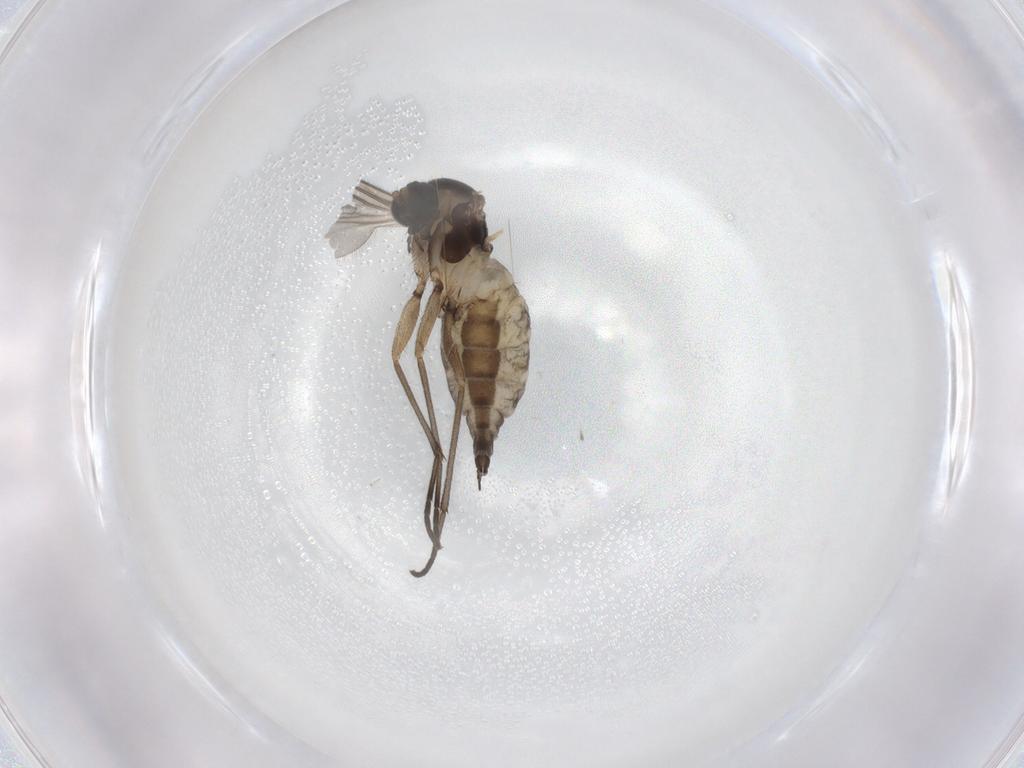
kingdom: Animalia
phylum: Arthropoda
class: Insecta
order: Diptera
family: Sciaridae
